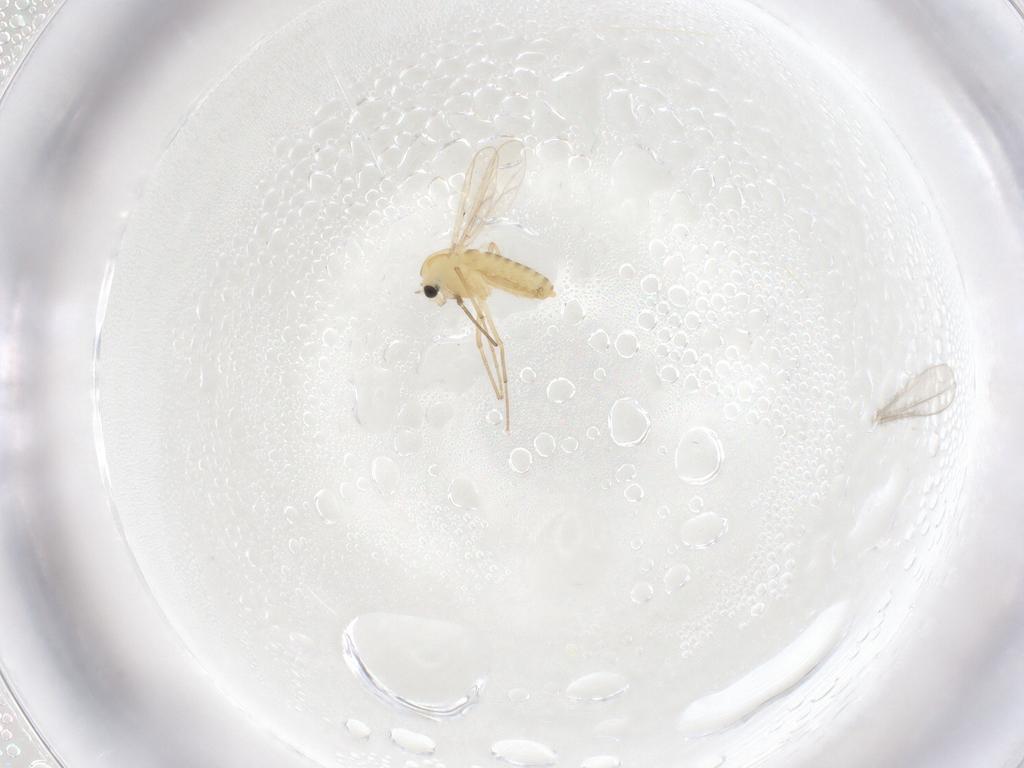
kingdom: Animalia
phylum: Arthropoda
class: Insecta
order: Diptera
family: Chironomidae
